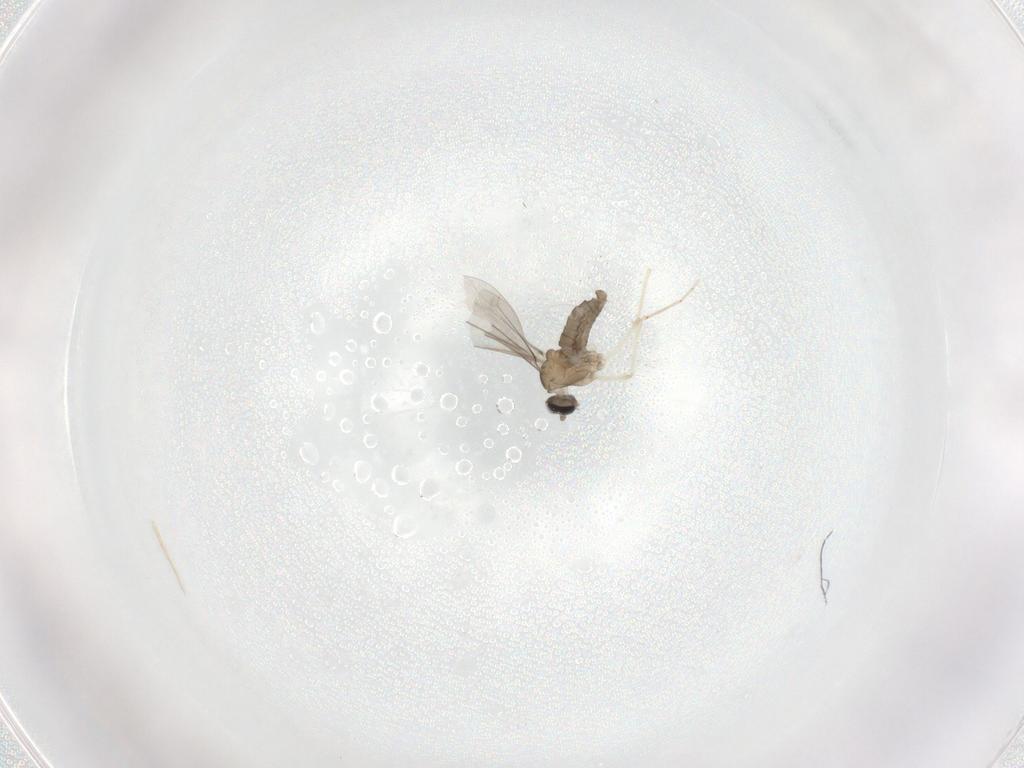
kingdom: Animalia
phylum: Arthropoda
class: Insecta
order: Diptera
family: Cecidomyiidae
